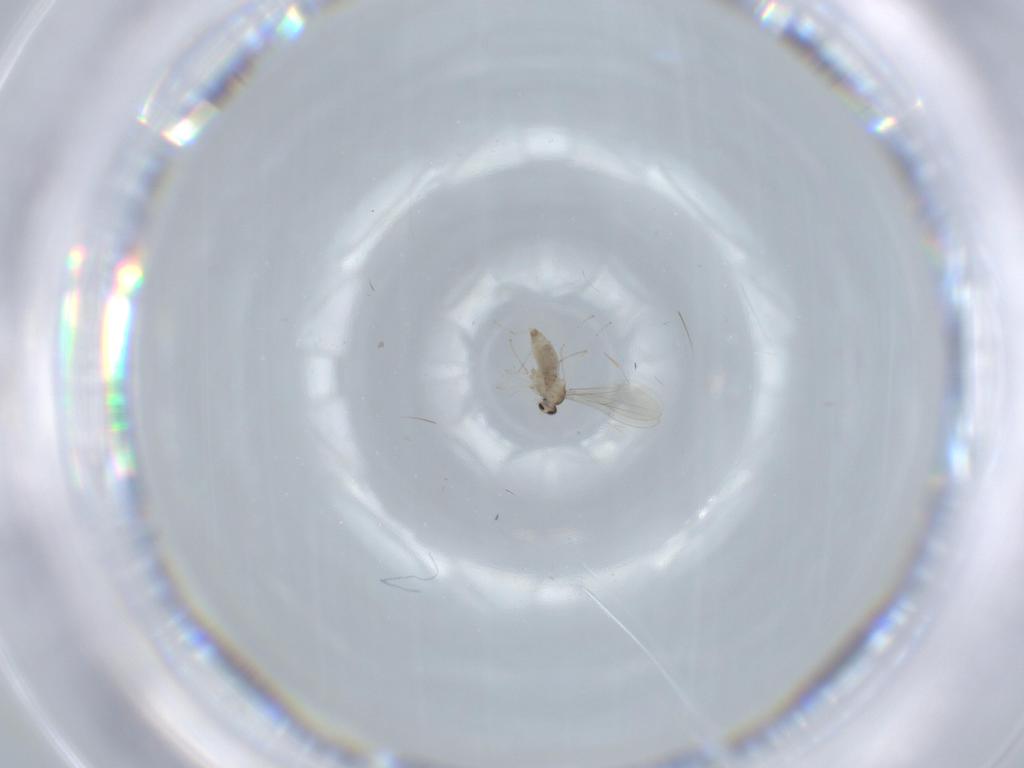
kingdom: Animalia
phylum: Arthropoda
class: Insecta
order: Diptera
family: Cecidomyiidae
